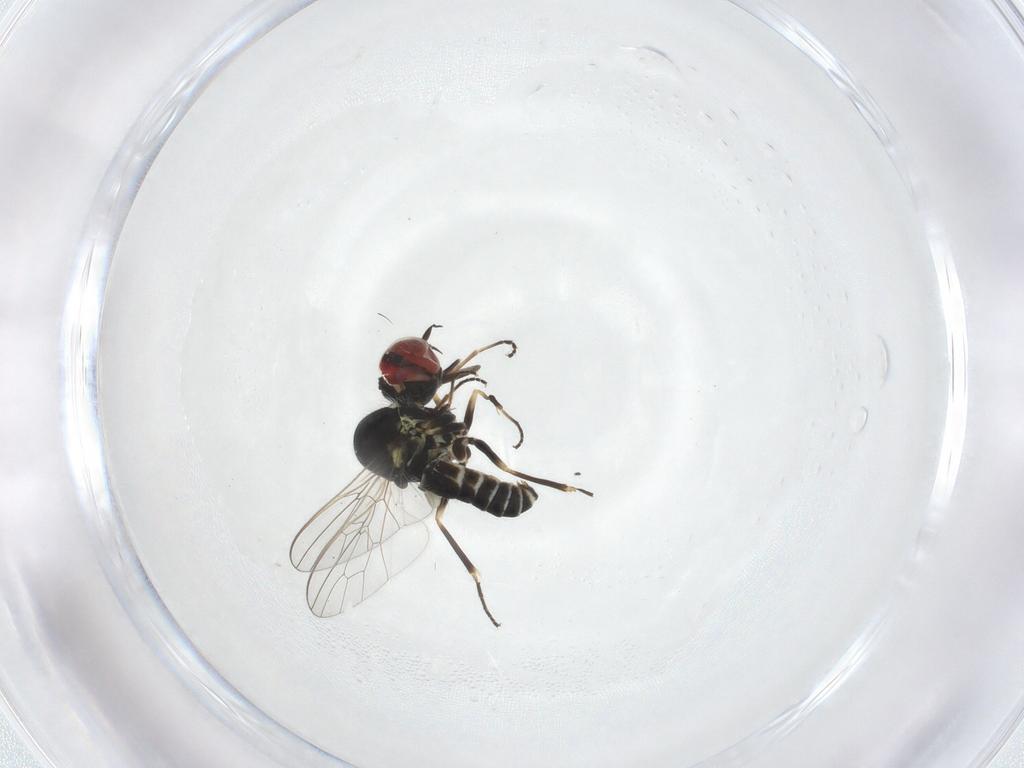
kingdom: Animalia
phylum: Arthropoda
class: Insecta
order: Diptera
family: Bombyliidae
